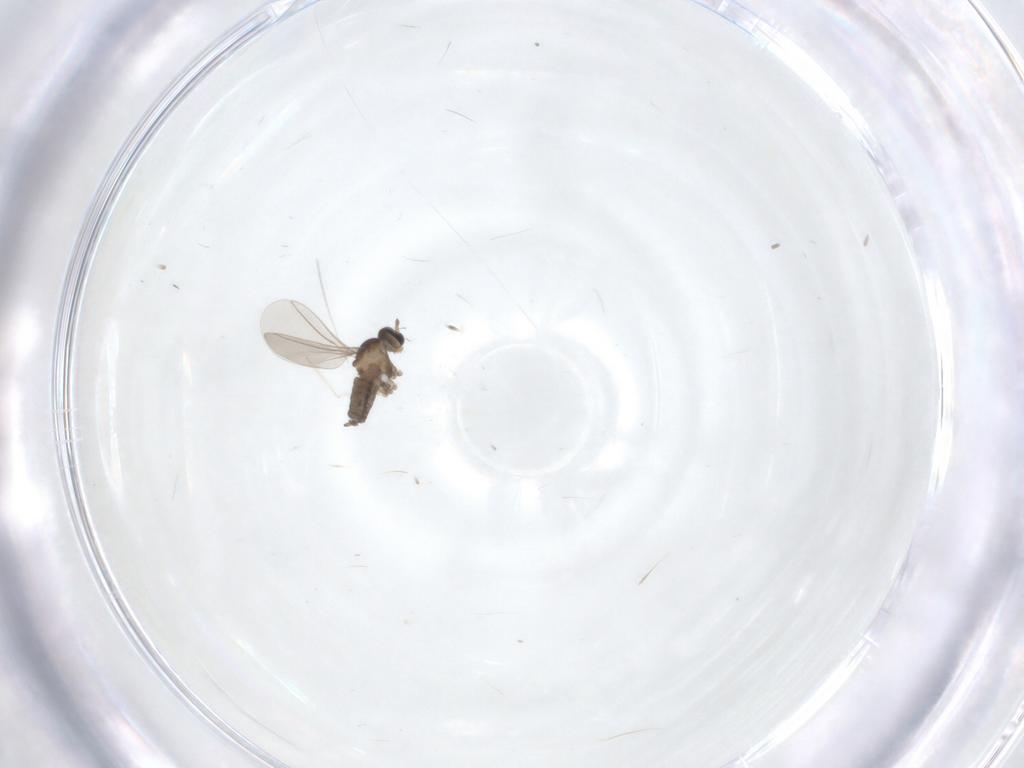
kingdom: Animalia
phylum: Arthropoda
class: Insecta
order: Diptera
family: Cecidomyiidae
